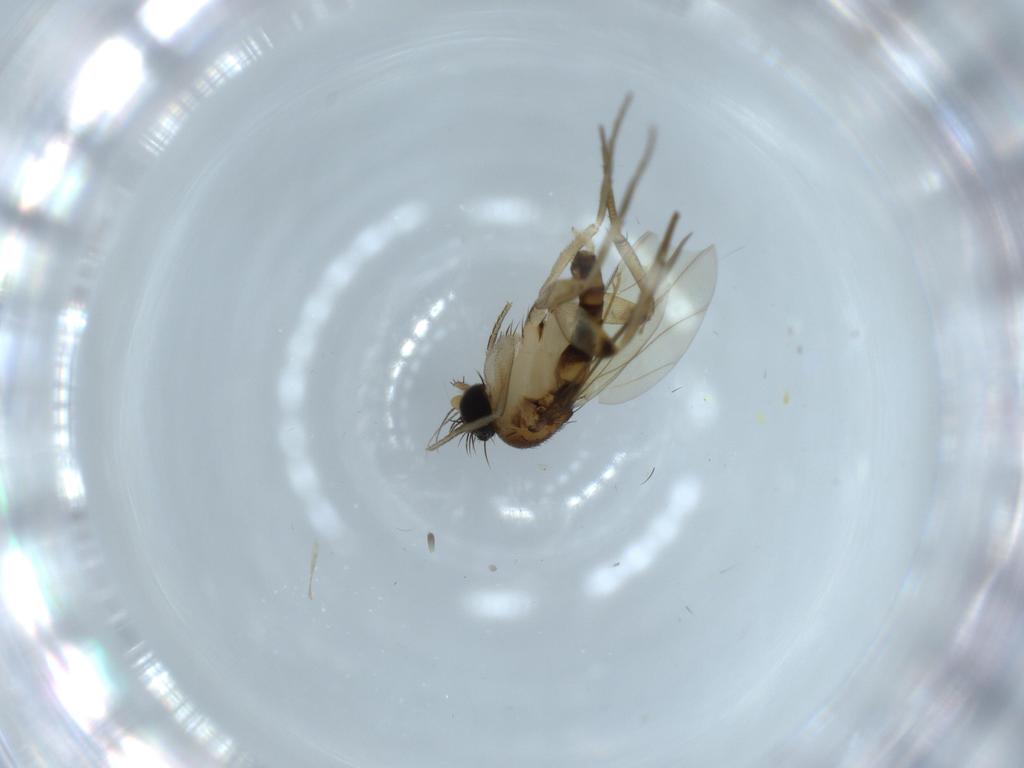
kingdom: Animalia
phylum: Arthropoda
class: Insecta
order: Diptera
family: Phoridae
